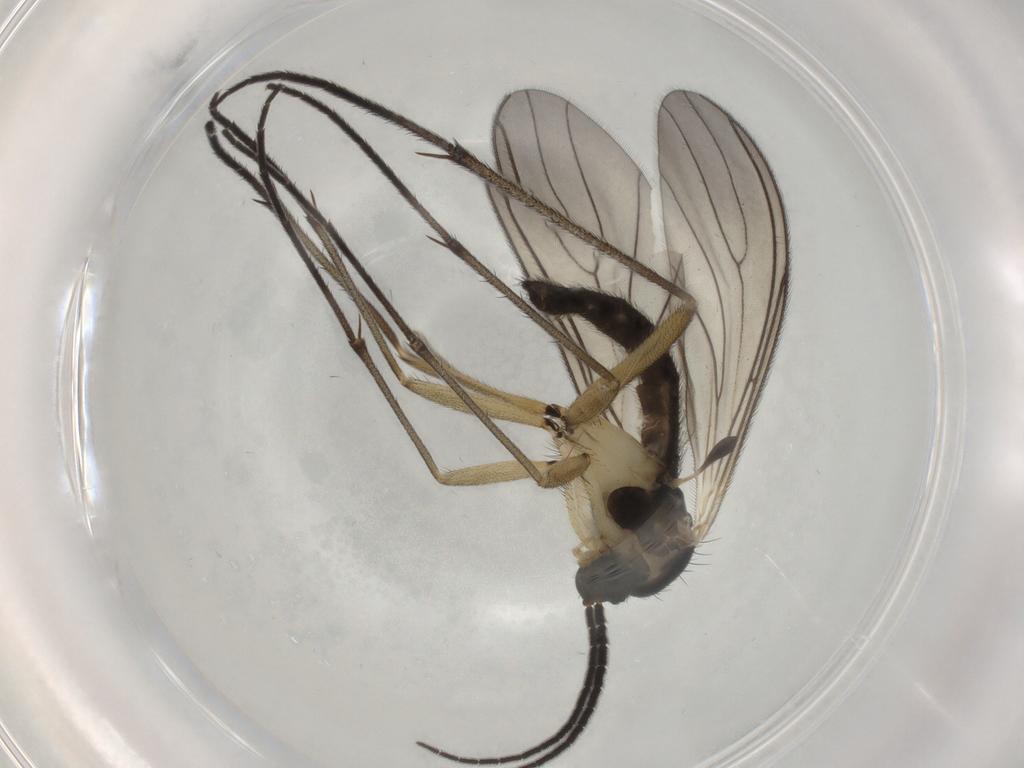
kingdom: Animalia
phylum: Arthropoda
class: Insecta
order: Diptera
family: Sciaridae
